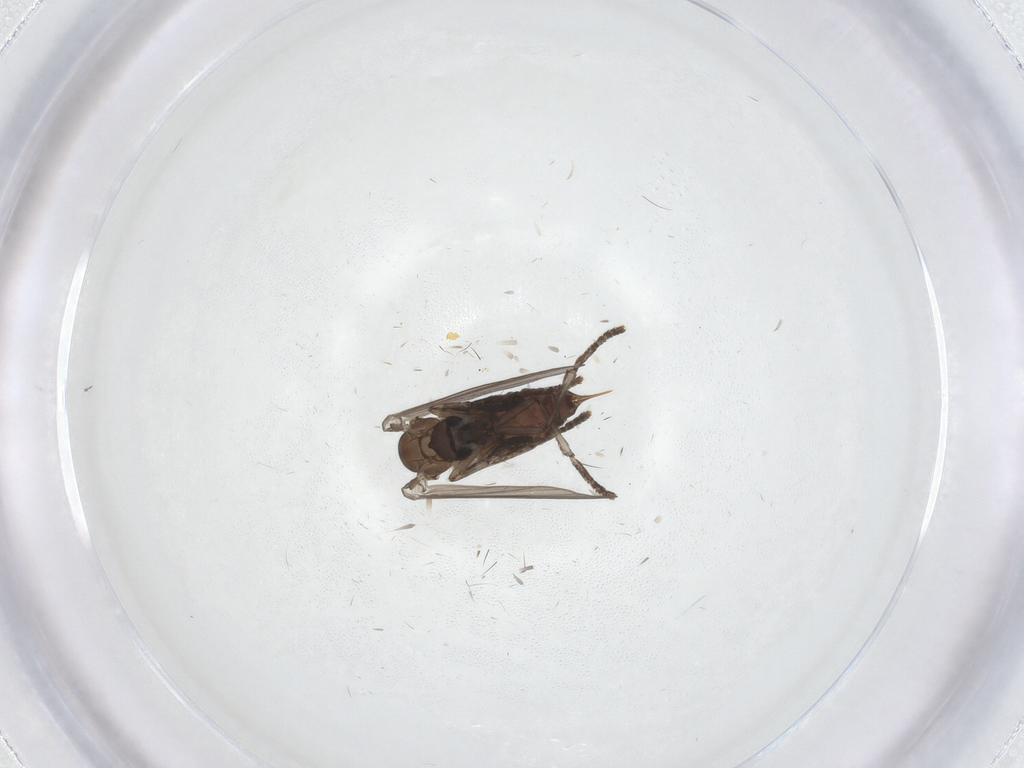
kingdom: Animalia
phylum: Arthropoda
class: Insecta
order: Diptera
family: Psychodidae
